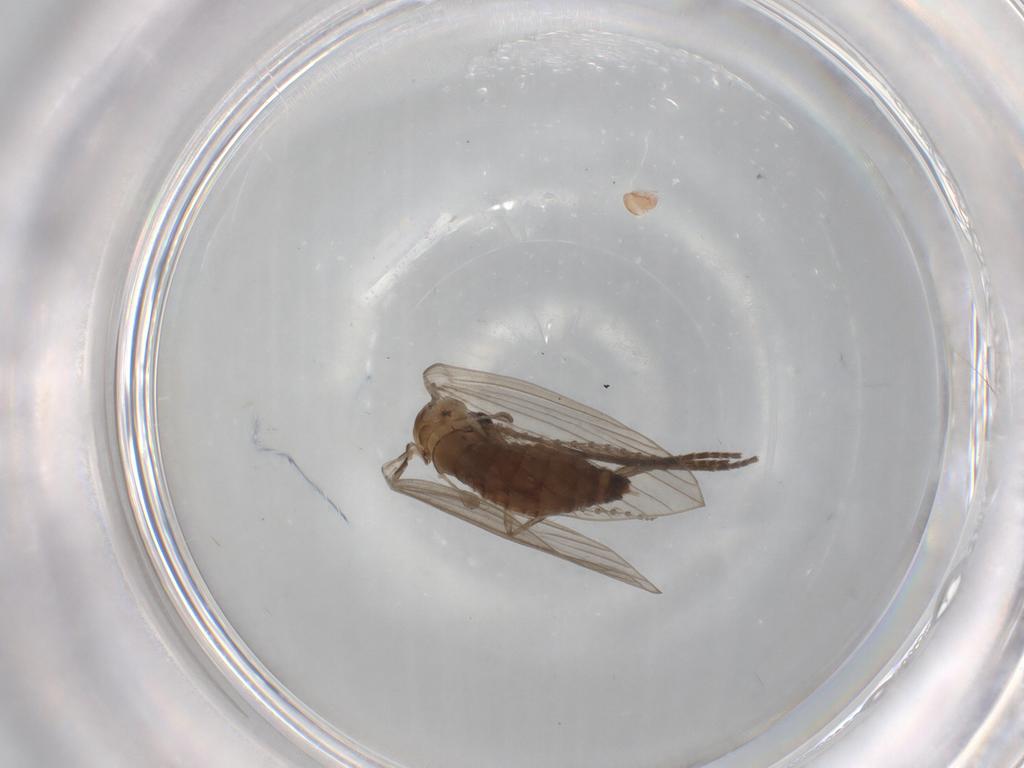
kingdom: Animalia
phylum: Arthropoda
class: Insecta
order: Diptera
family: Psychodidae
